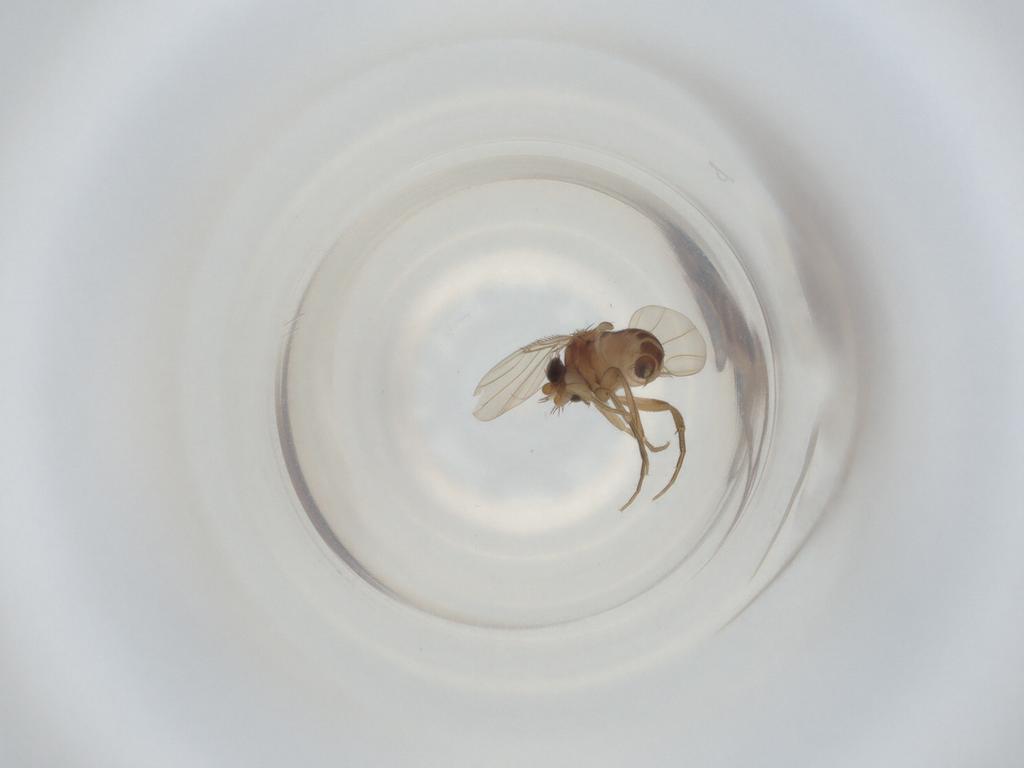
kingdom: Animalia
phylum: Arthropoda
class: Insecta
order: Diptera
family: Phoridae
